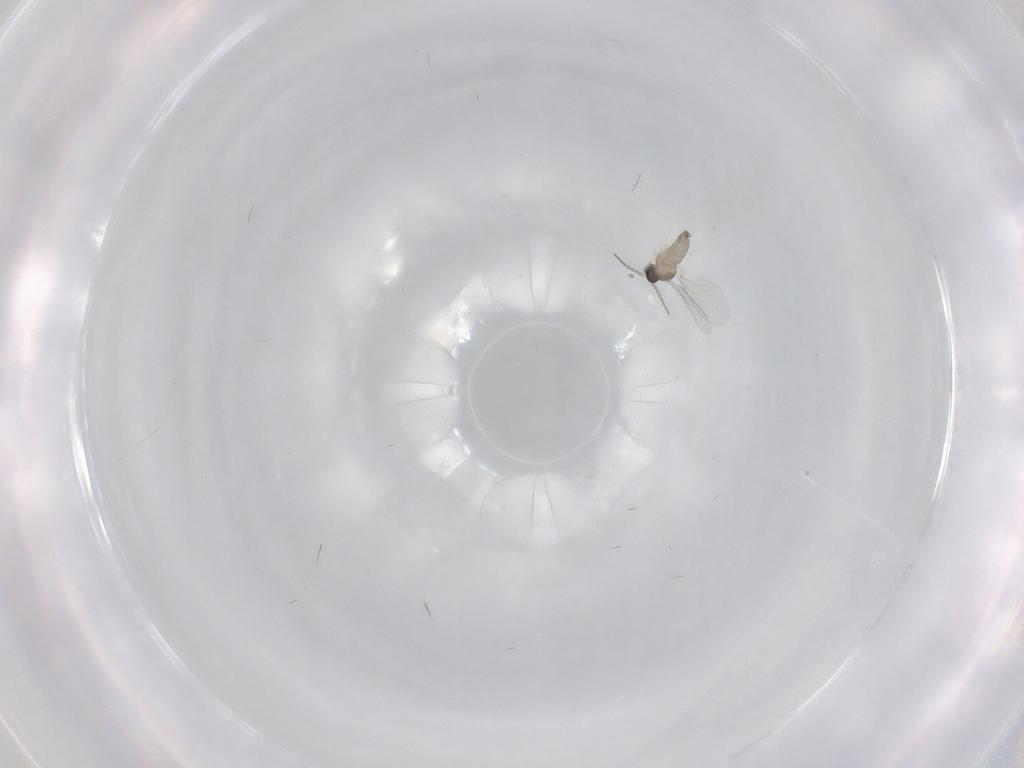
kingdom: Animalia
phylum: Arthropoda
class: Insecta
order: Diptera
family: Cecidomyiidae
